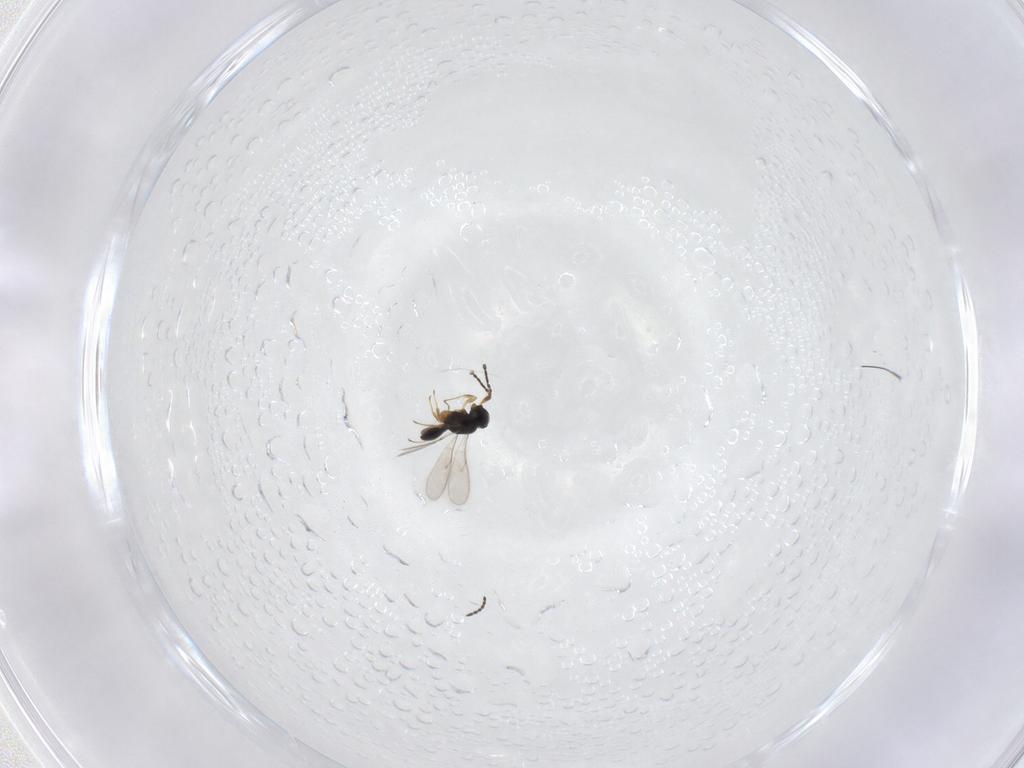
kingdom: Animalia
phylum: Arthropoda
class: Insecta
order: Hymenoptera
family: Scelionidae
